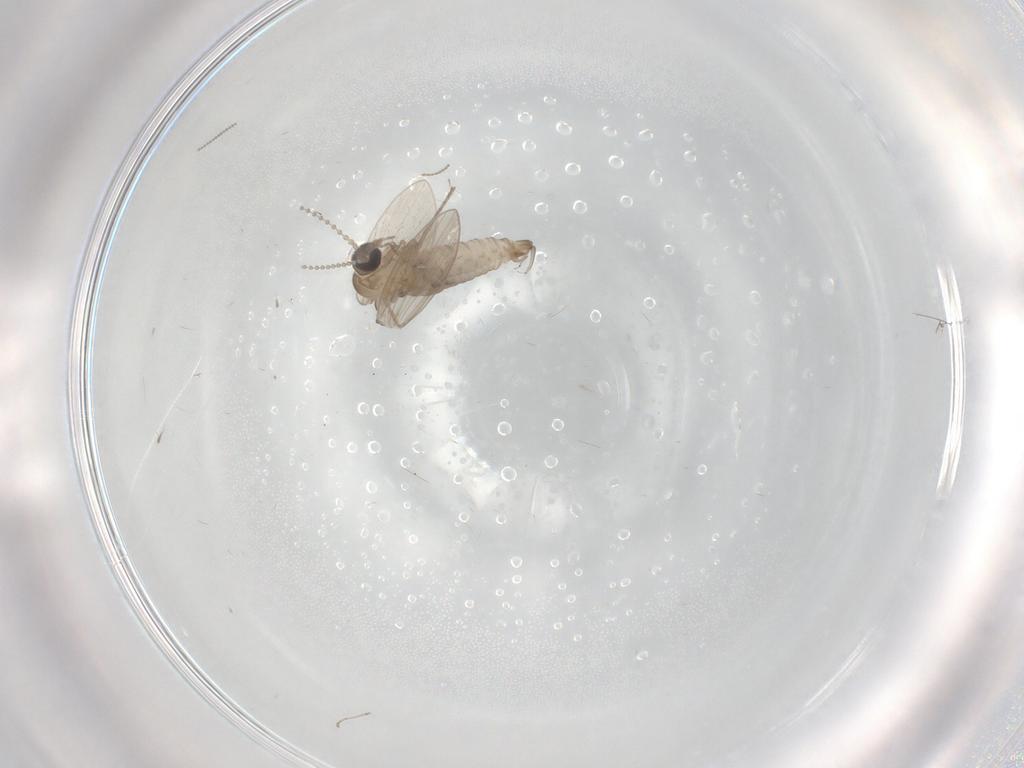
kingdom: Animalia
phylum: Arthropoda
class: Insecta
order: Diptera
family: Psychodidae
